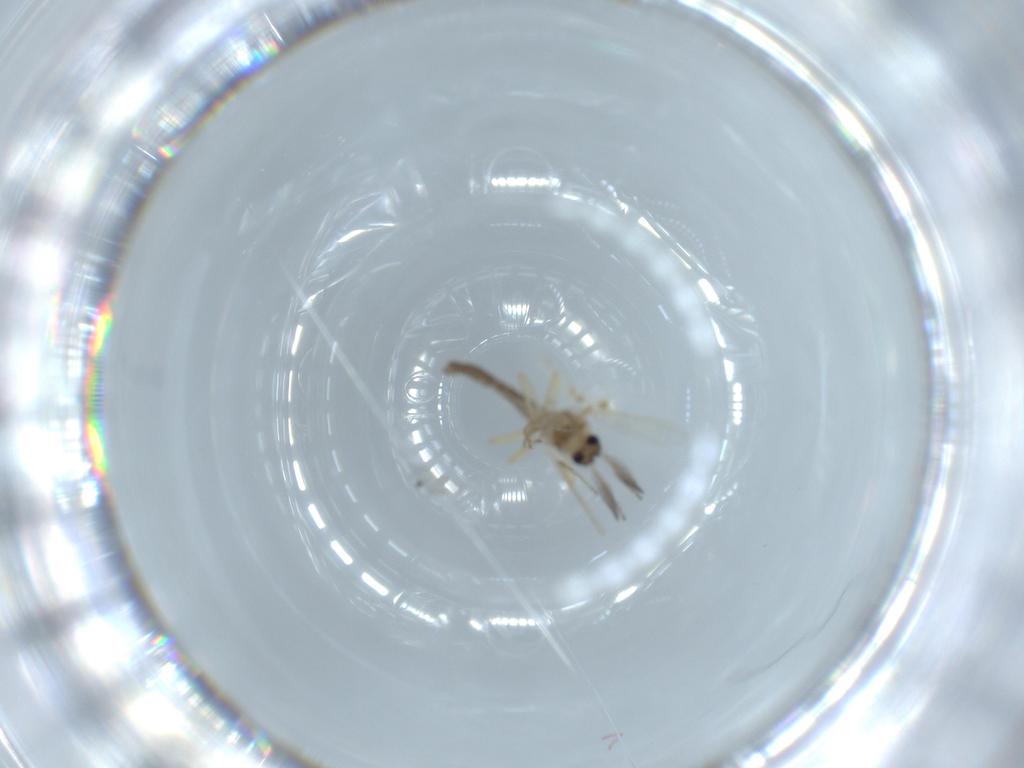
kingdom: Animalia
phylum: Arthropoda
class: Insecta
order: Diptera
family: Ceratopogonidae
